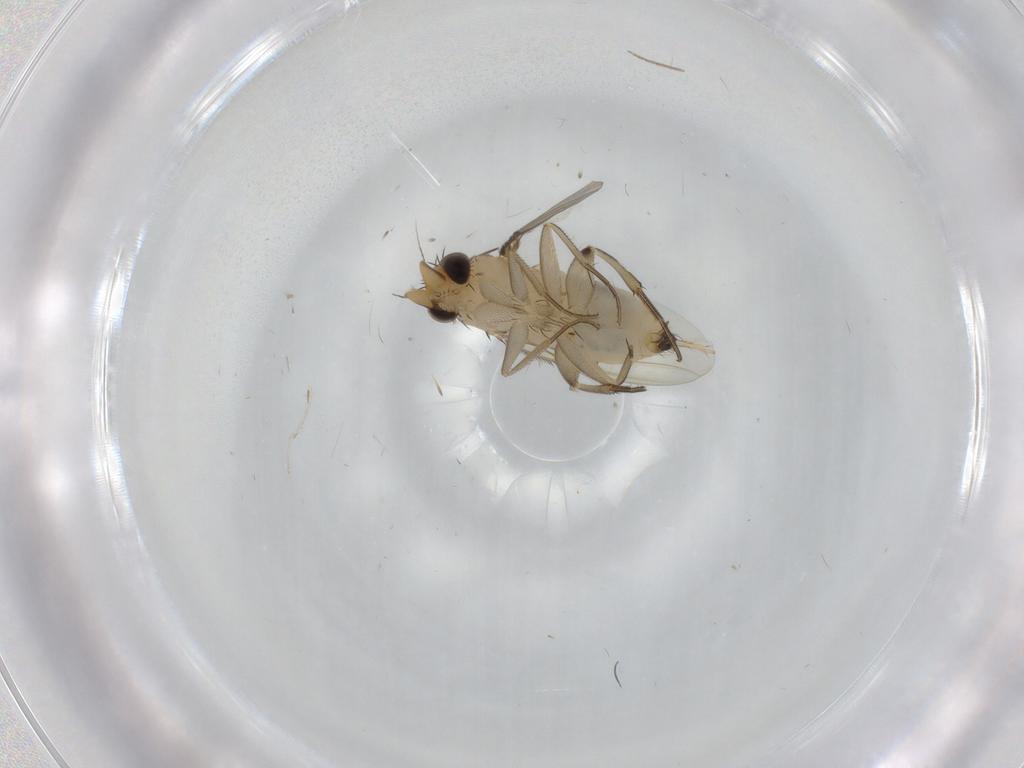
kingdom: Animalia
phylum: Arthropoda
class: Insecta
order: Diptera
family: Phoridae
